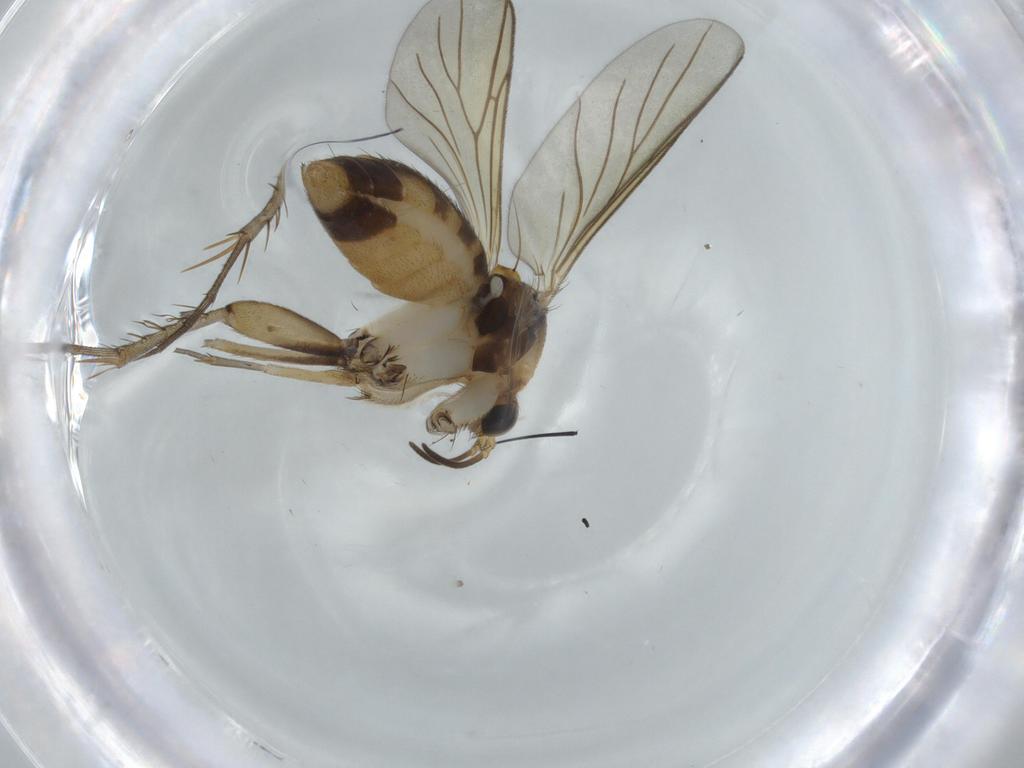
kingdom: Animalia
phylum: Arthropoda
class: Insecta
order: Diptera
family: Mycetophilidae
